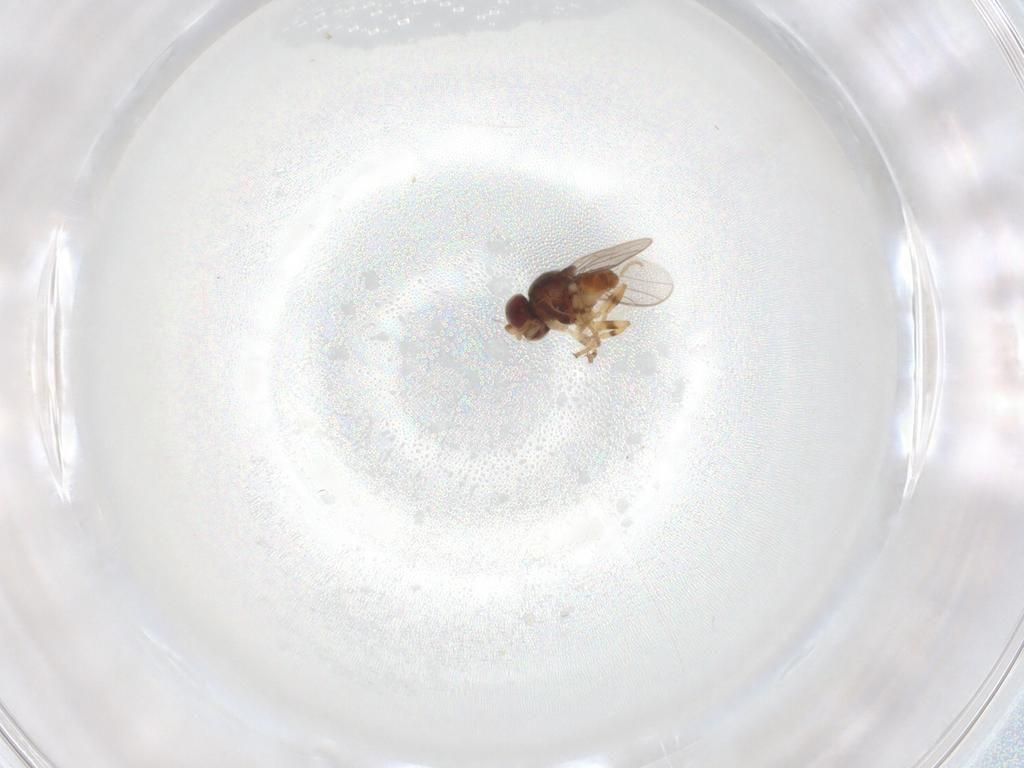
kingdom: Animalia
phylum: Arthropoda
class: Insecta
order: Diptera
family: Chloropidae
